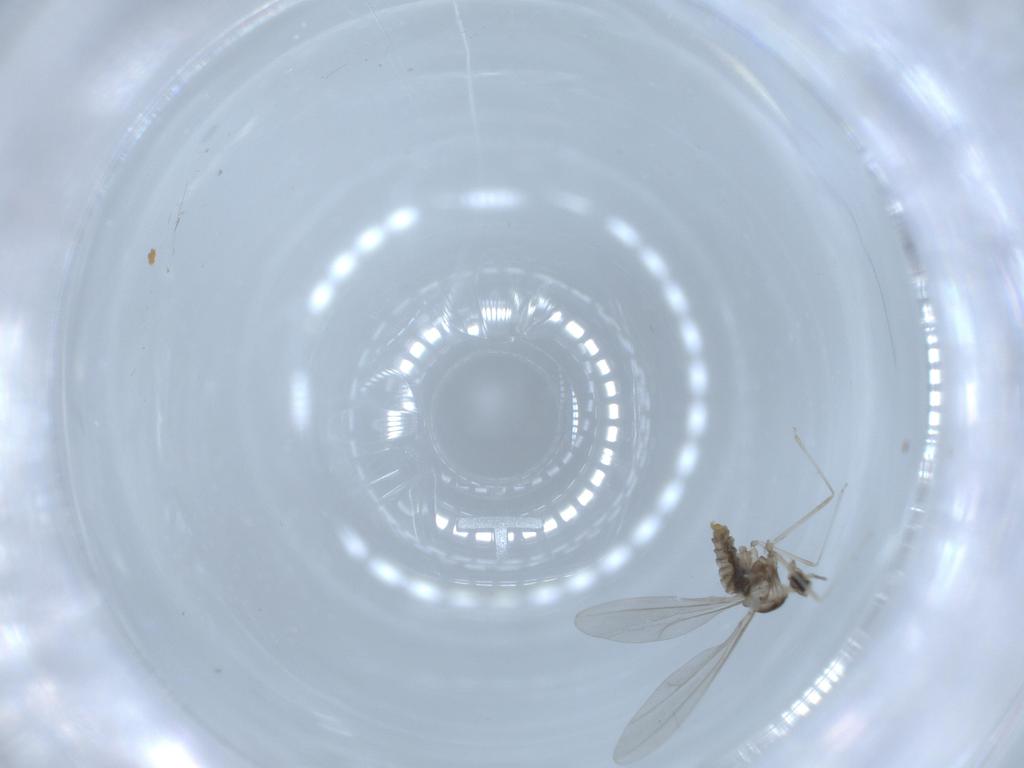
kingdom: Animalia
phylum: Arthropoda
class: Insecta
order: Diptera
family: Cecidomyiidae
